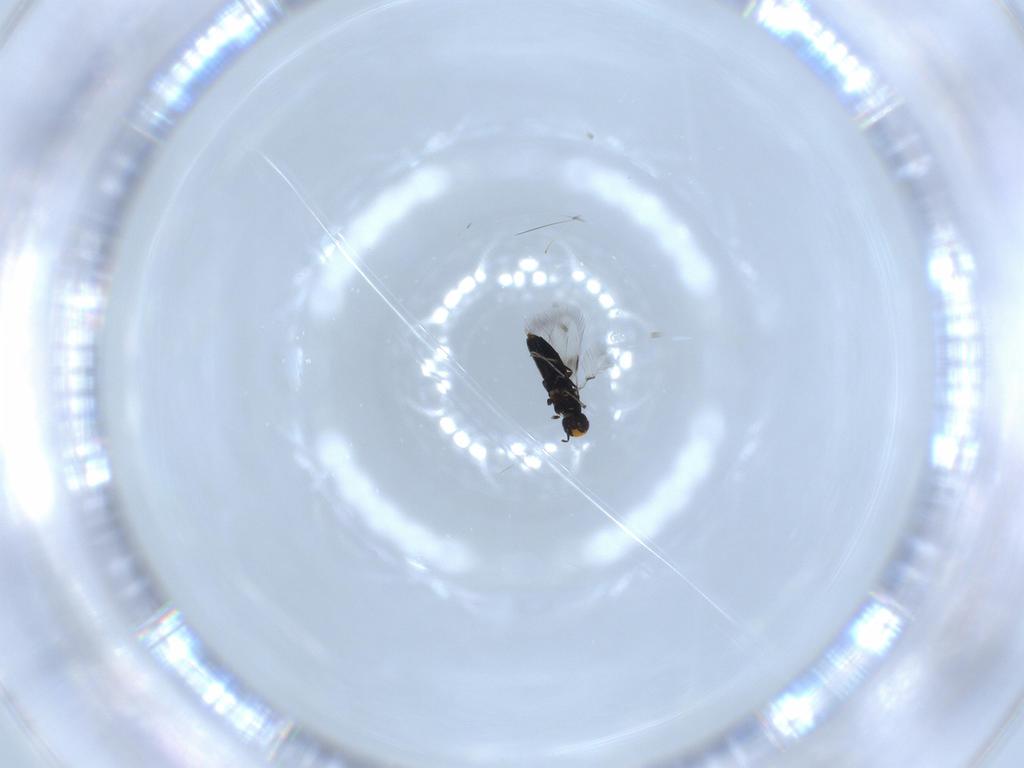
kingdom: Animalia
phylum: Arthropoda
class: Insecta
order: Hymenoptera
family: Signiphoridae
